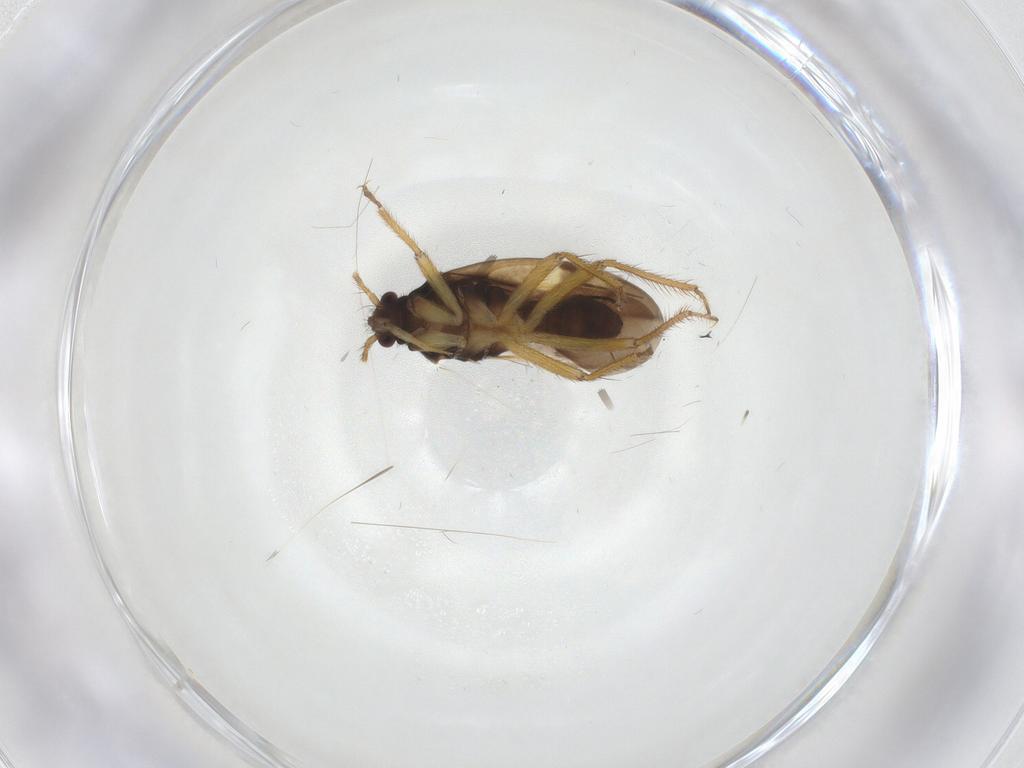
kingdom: Animalia
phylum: Arthropoda
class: Insecta
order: Hemiptera
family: Ceratocombidae
